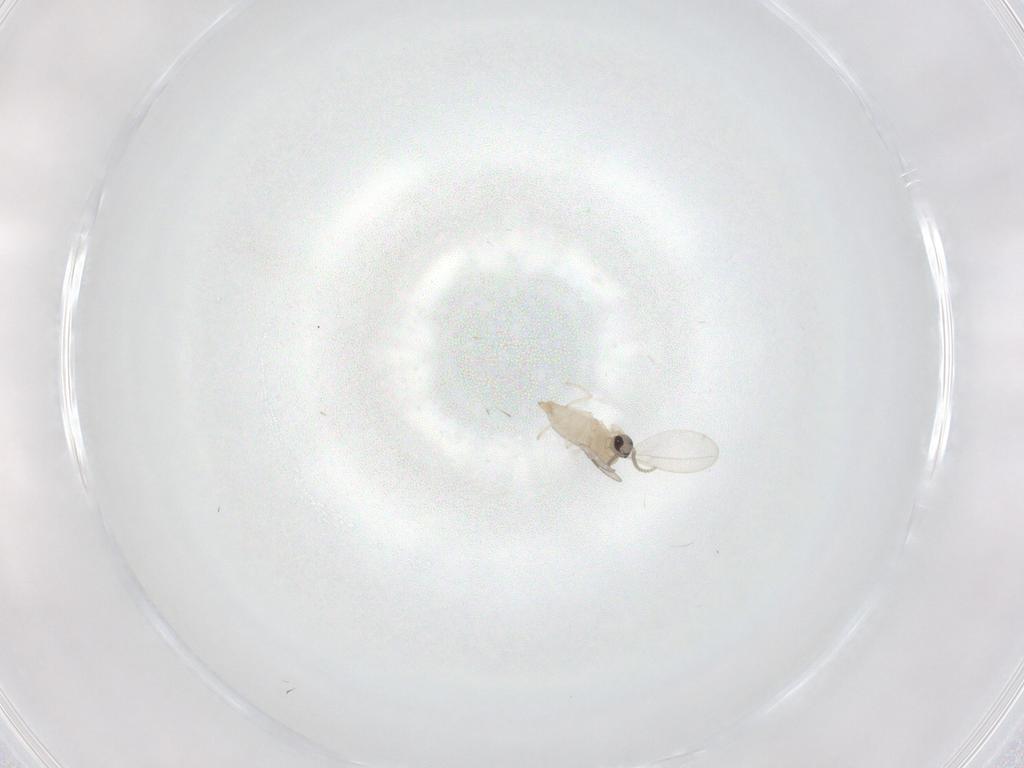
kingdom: Animalia
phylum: Arthropoda
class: Insecta
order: Diptera
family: Cecidomyiidae
